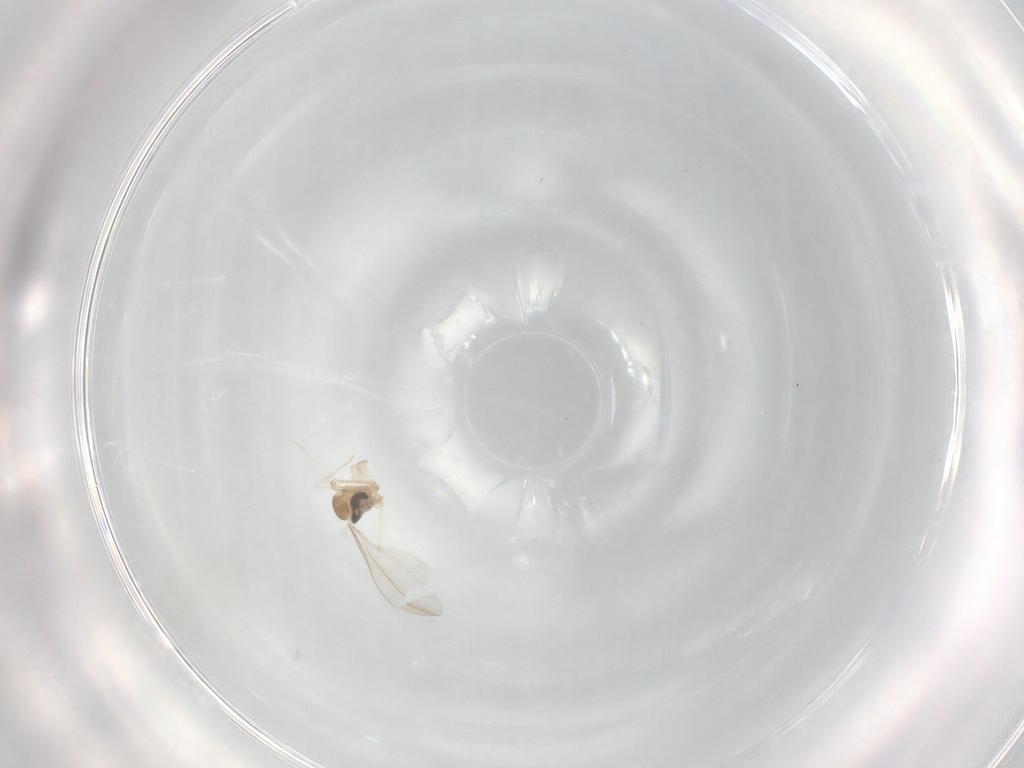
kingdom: Animalia
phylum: Arthropoda
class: Insecta
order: Diptera
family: Cecidomyiidae
